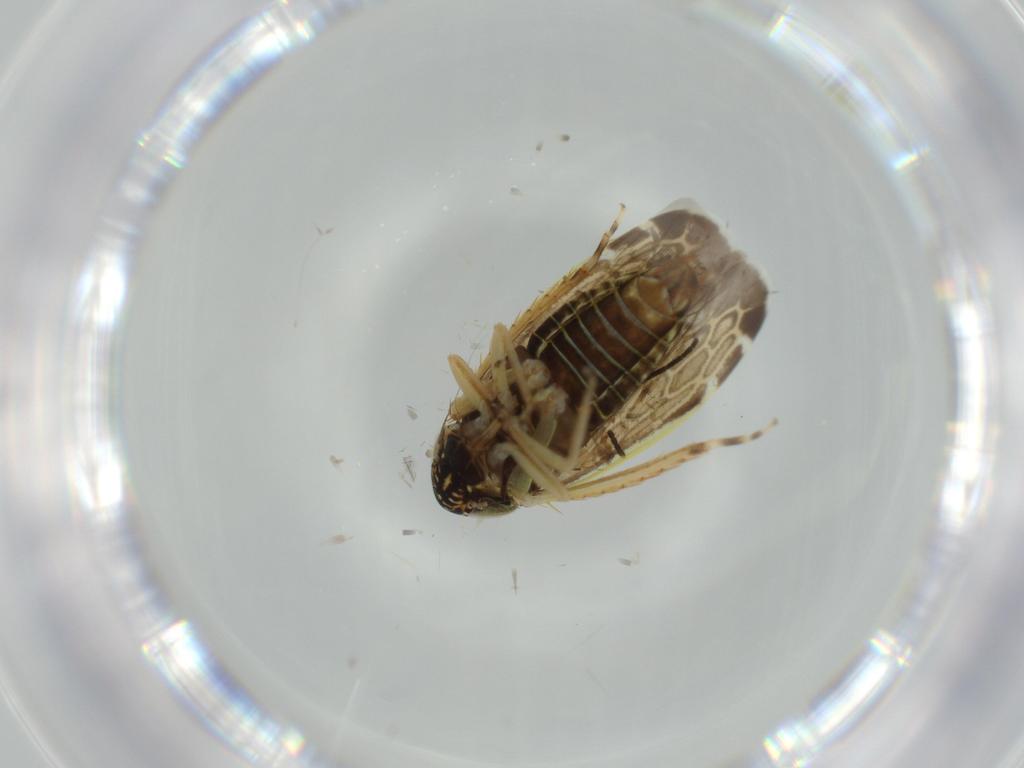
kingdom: Animalia
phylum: Arthropoda
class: Insecta
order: Hemiptera
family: Cicadellidae
